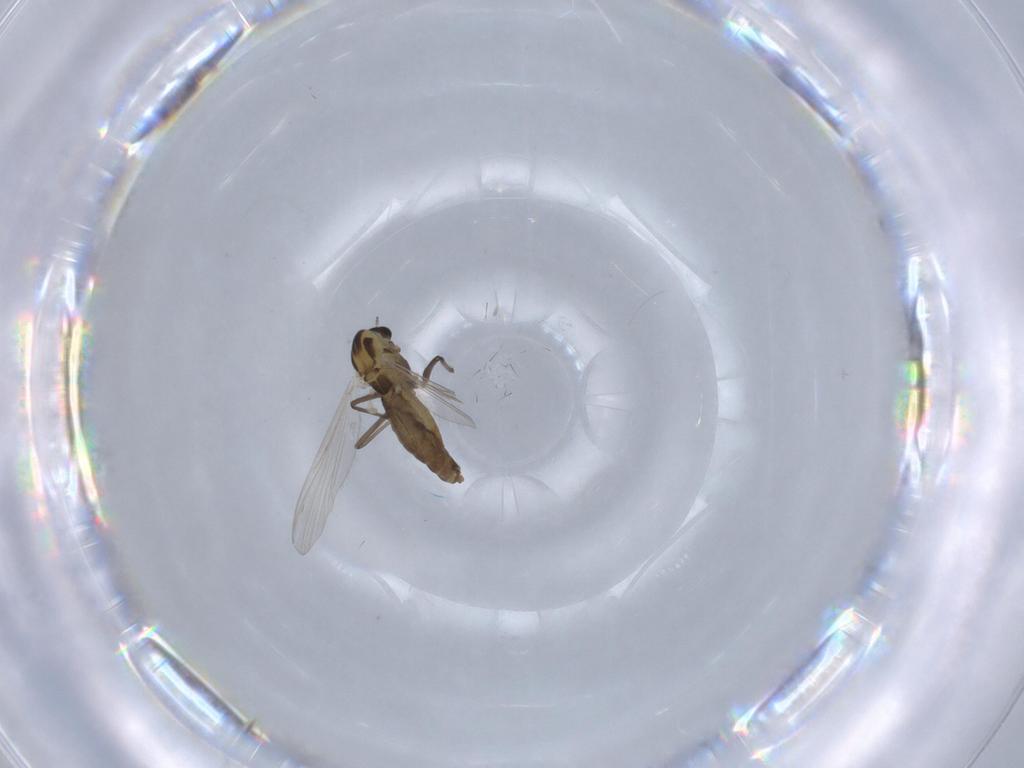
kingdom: Animalia
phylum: Arthropoda
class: Insecta
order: Diptera
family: Chironomidae
